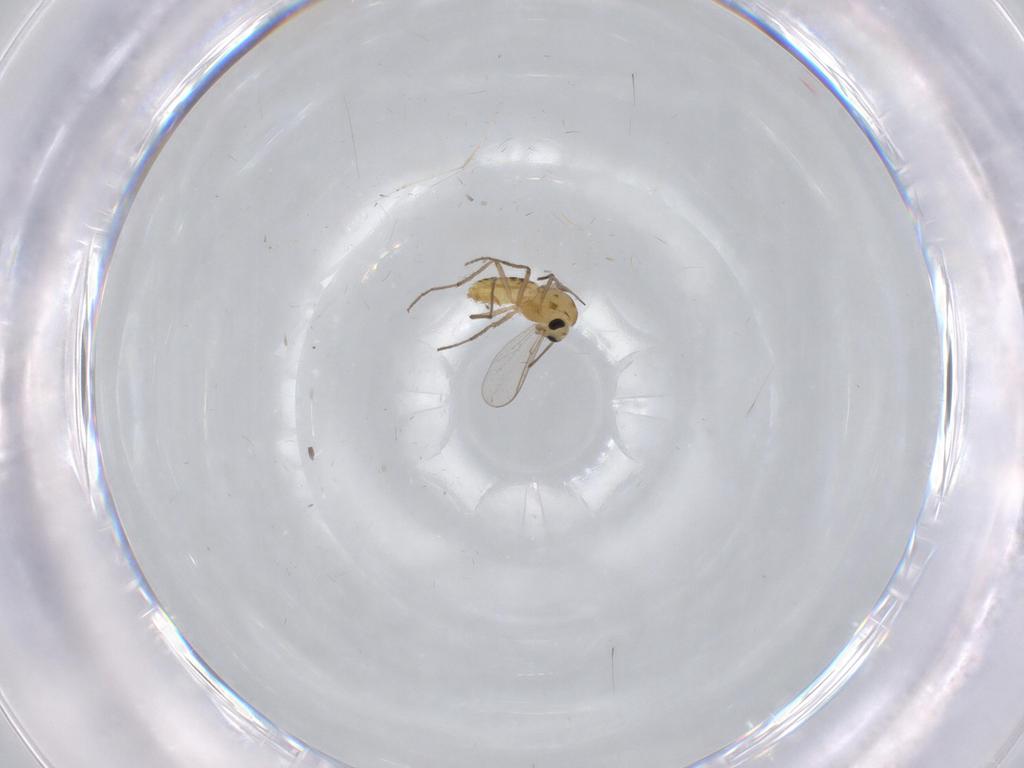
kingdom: Animalia
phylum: Arthropoda
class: Insecta
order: Diptera
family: Chironomidae
